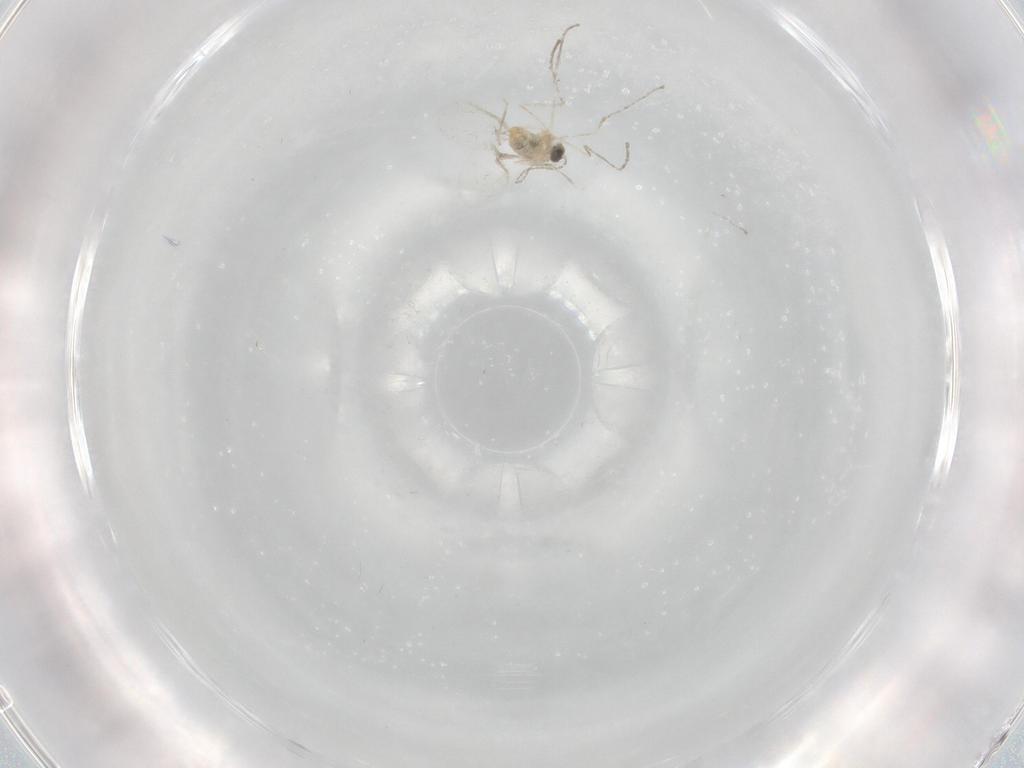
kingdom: Animalia
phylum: Arthropoda
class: Insecta
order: Diptera
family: Cecidomyiidae
